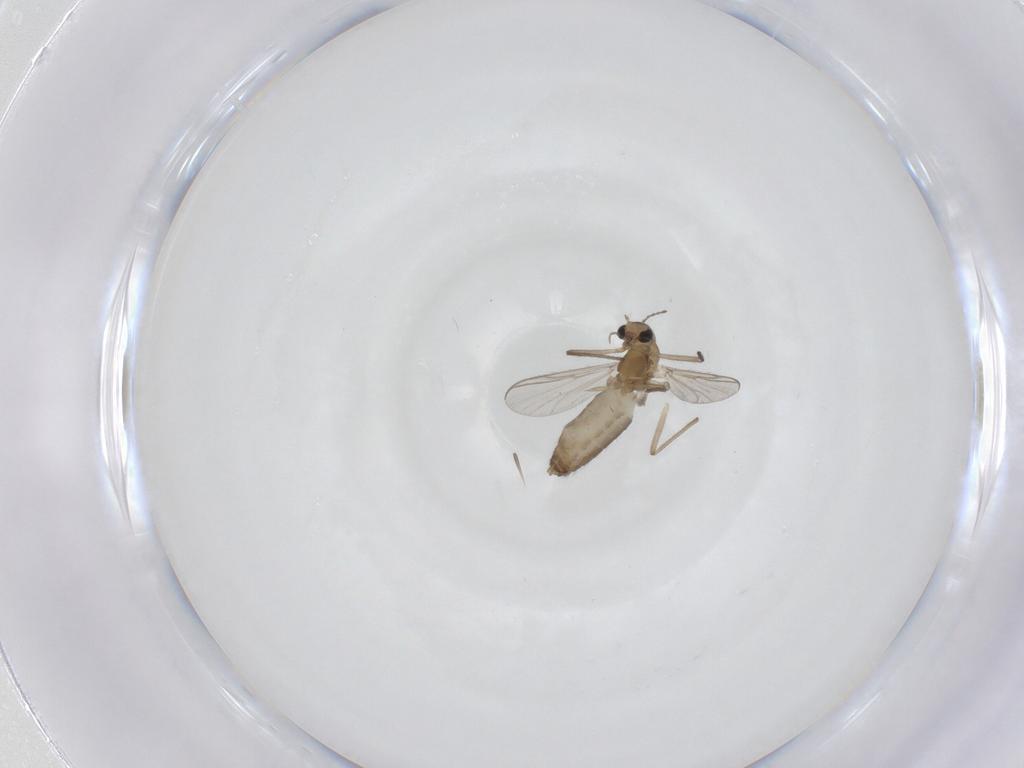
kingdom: Animalia
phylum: Arthropoda
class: Insecta
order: Diptera
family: Chironomidae
